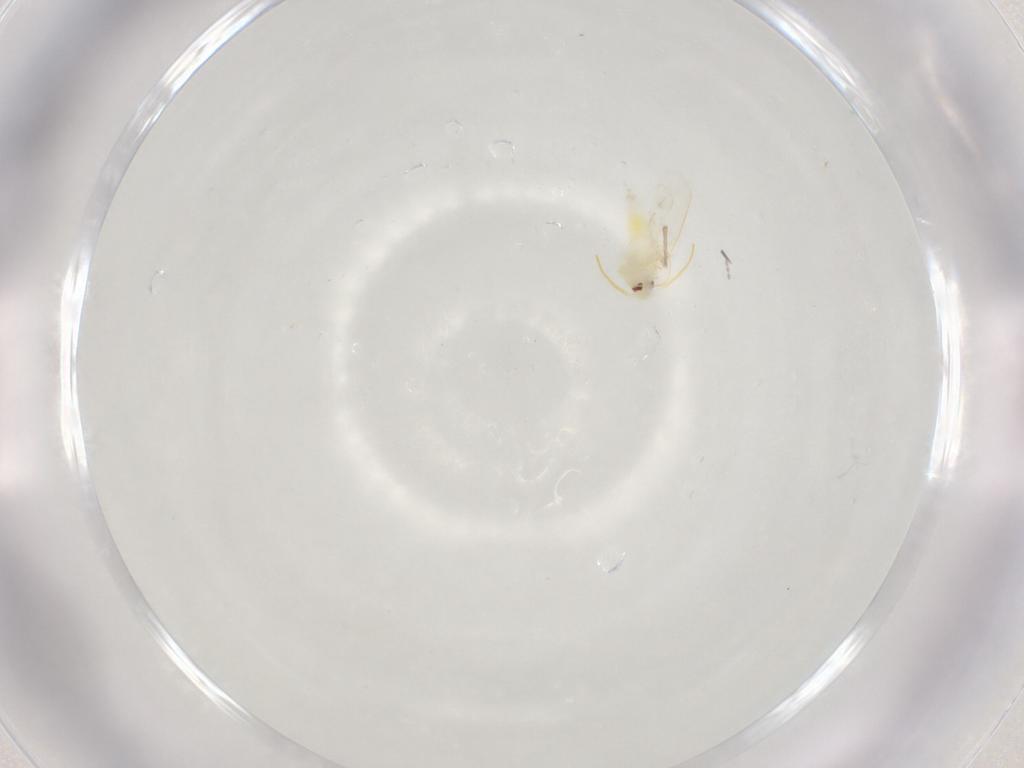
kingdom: Animalia
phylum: Arthropoda
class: Insecta
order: Hemiptera
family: Aleyrodidae
